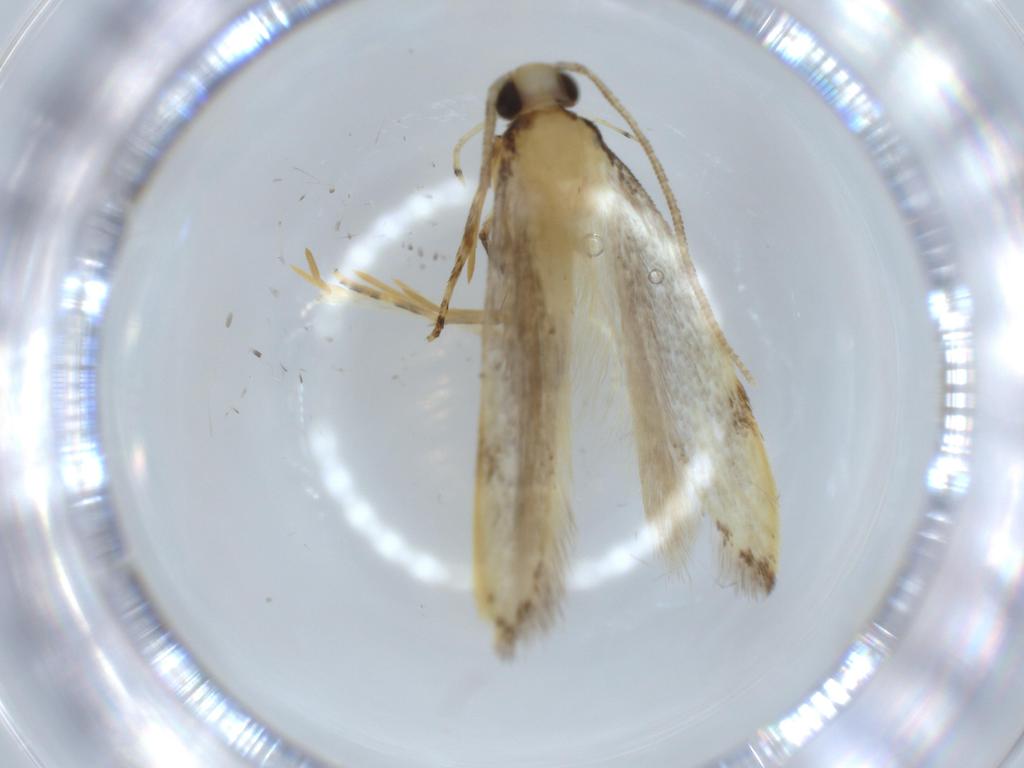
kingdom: Animalia
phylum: Arthropoda
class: Insecta
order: Lepidoptera
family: Autostichidae
